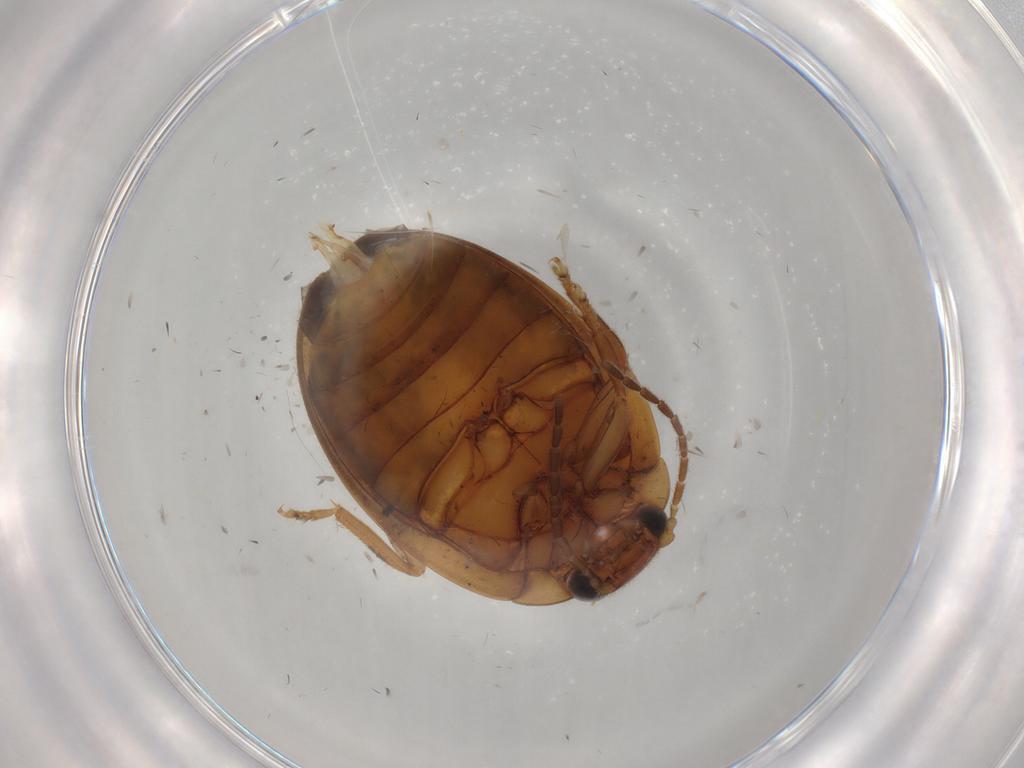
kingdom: Animalia
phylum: Arthropoda
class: Insecta
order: Coleoptera
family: Scirtidae
